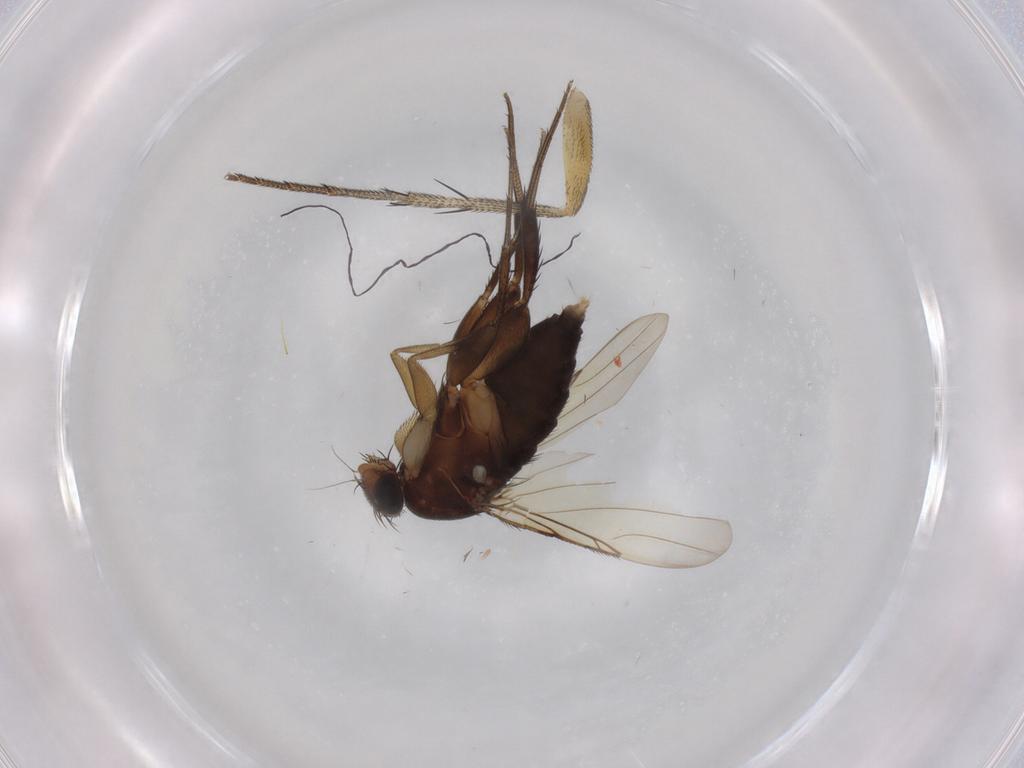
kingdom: Animalia
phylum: Arthropoda
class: Insecta
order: Diptera
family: Phoridae
